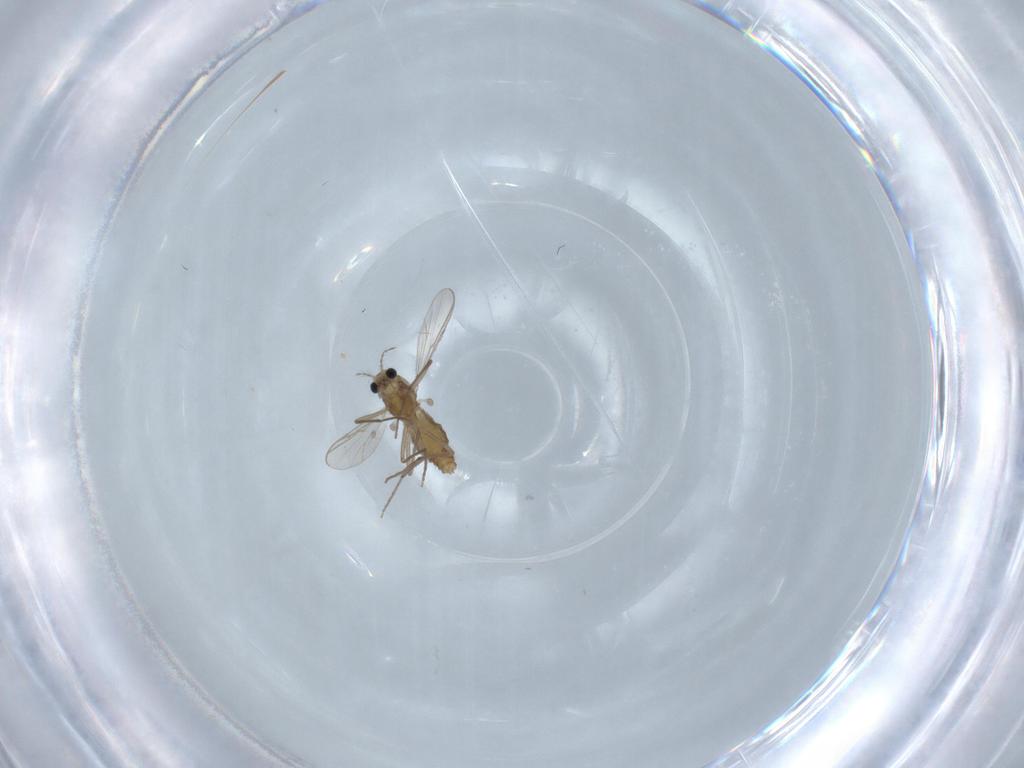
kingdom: Animalia
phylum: Arthropoda
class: Insecta
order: Diptera
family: Chironomidae
